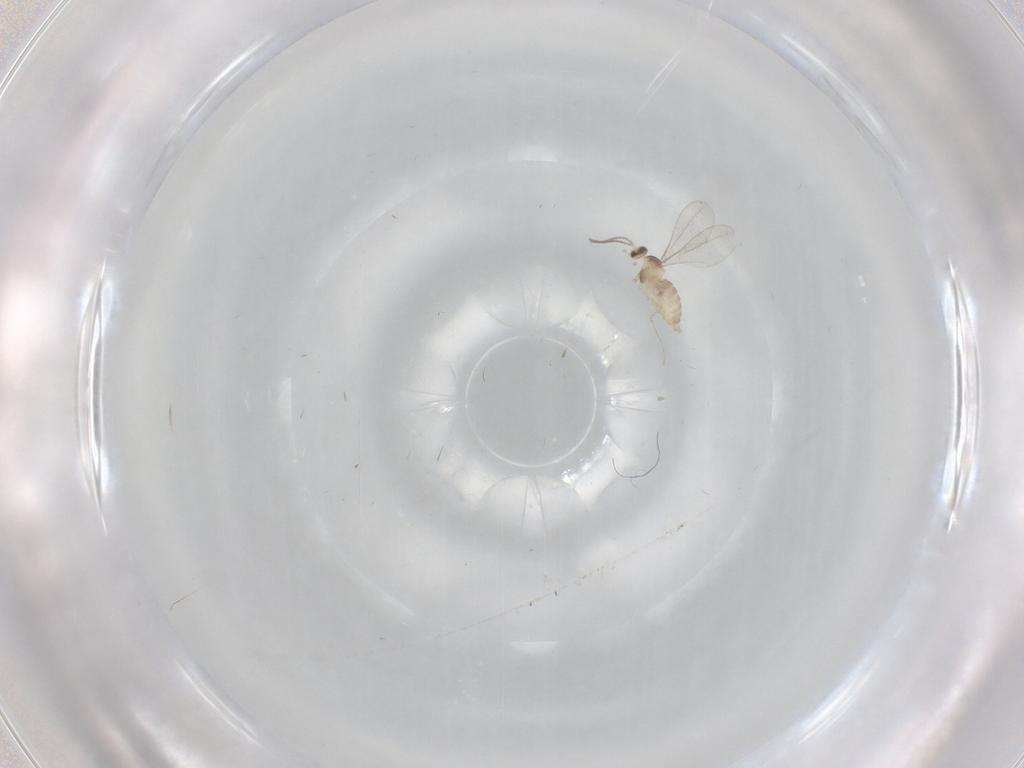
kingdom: Animalia
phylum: Arthropoda
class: Insecta
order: Diptera
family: Cecidomyiidae
